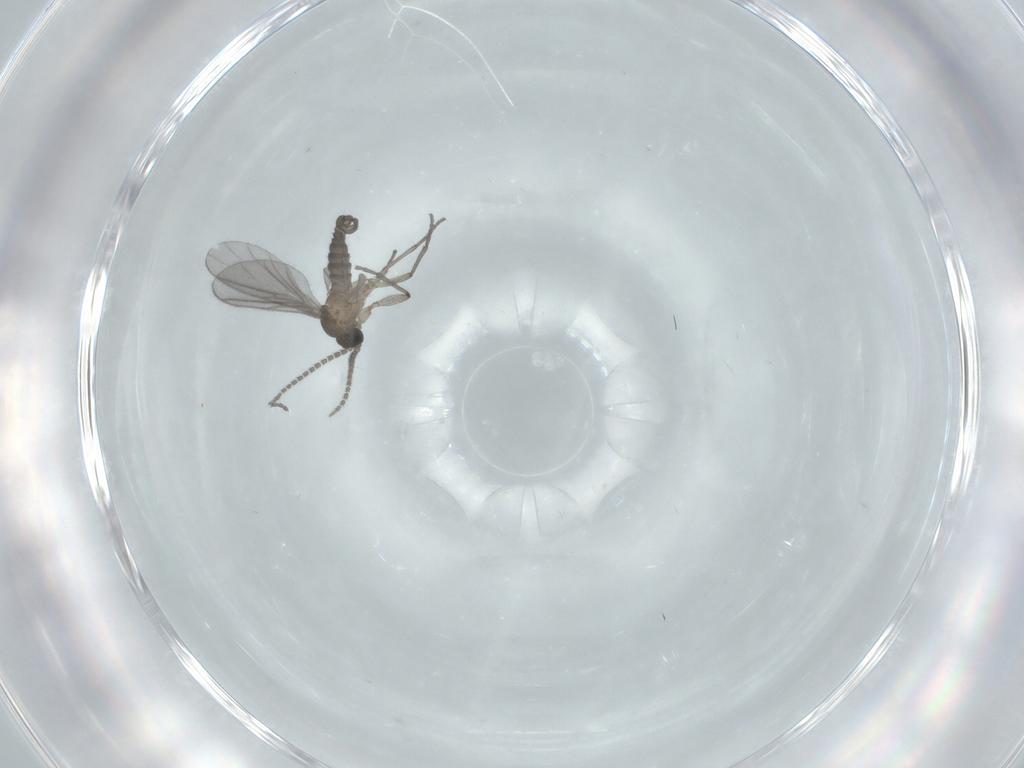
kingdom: Animalia
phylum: Arthropoda
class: Insecta
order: Diptera
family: Sciaridae
